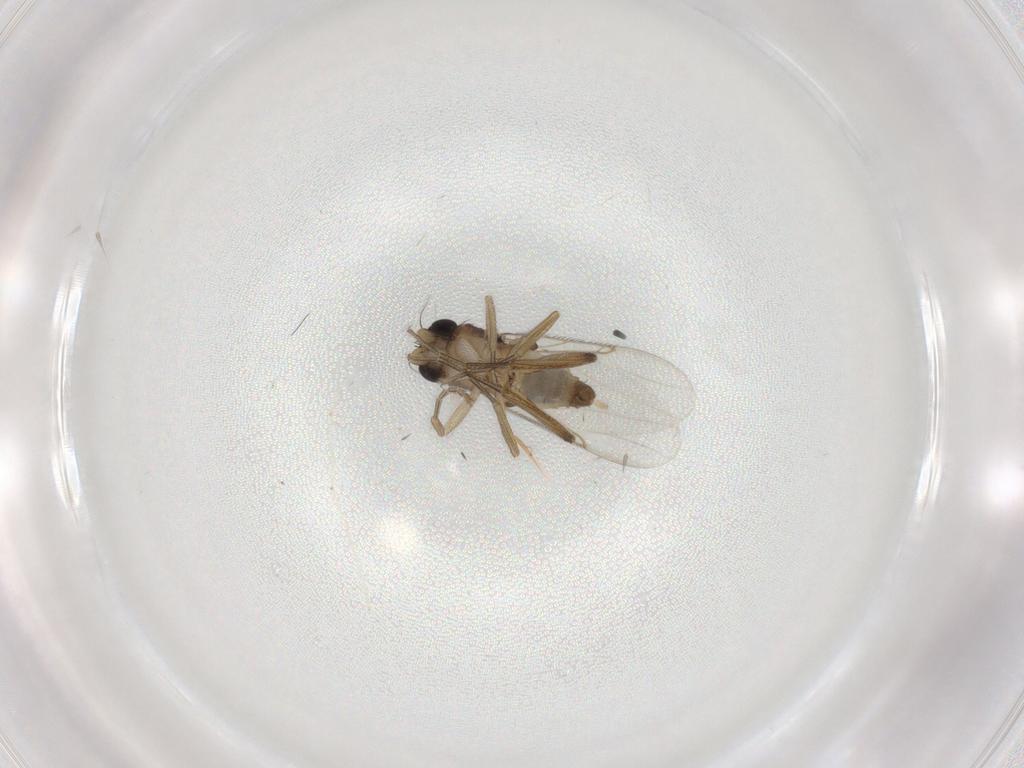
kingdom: Animalia
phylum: Arthropoda
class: Insecta
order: Diptera
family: Phoridae
